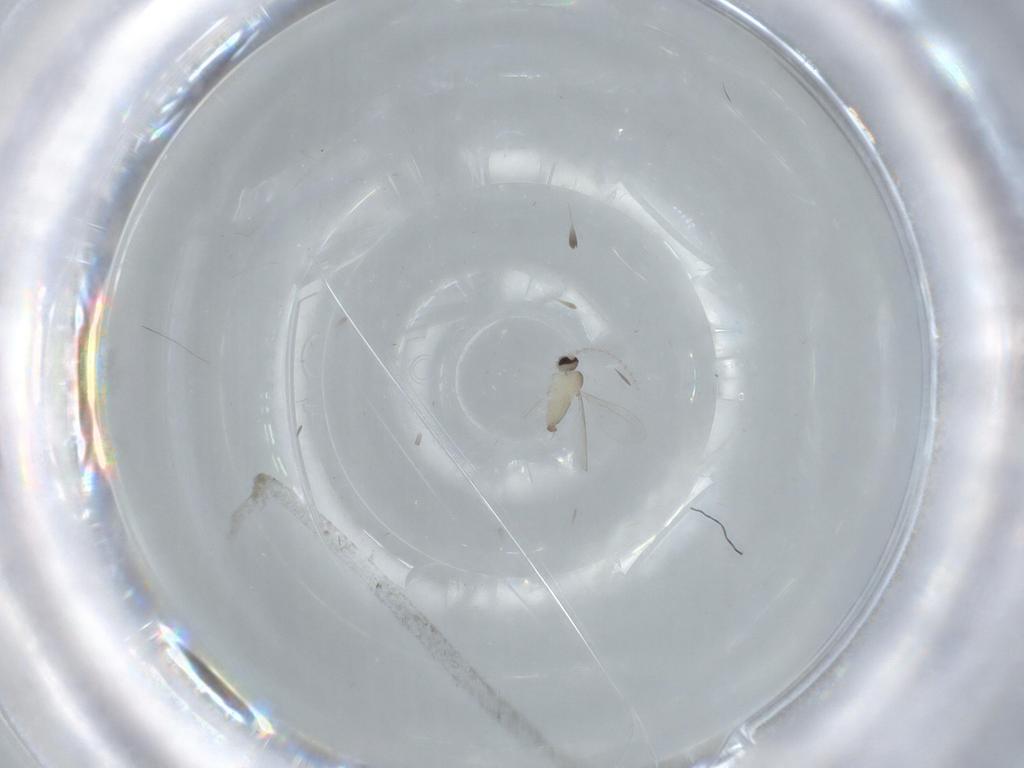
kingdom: Animalia
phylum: Arthropoda
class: Insecta
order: Diptera
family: Cecidomyiidae
